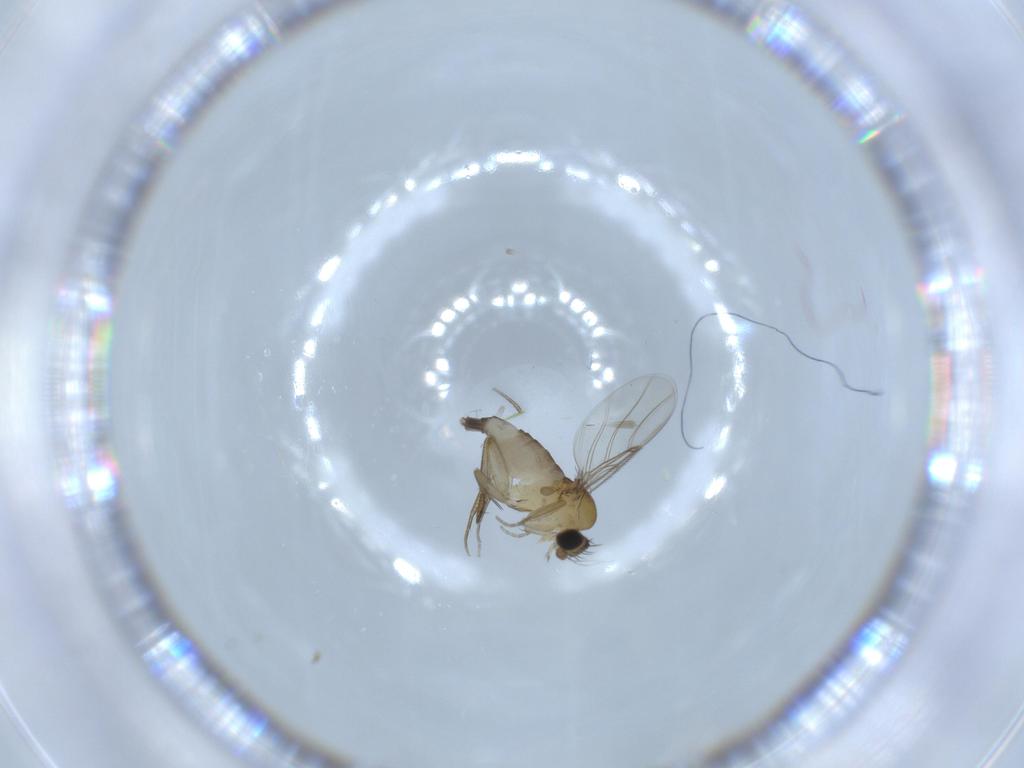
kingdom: Animalia
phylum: Arthropoda
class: Insecta
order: Diptera
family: Phoridae
